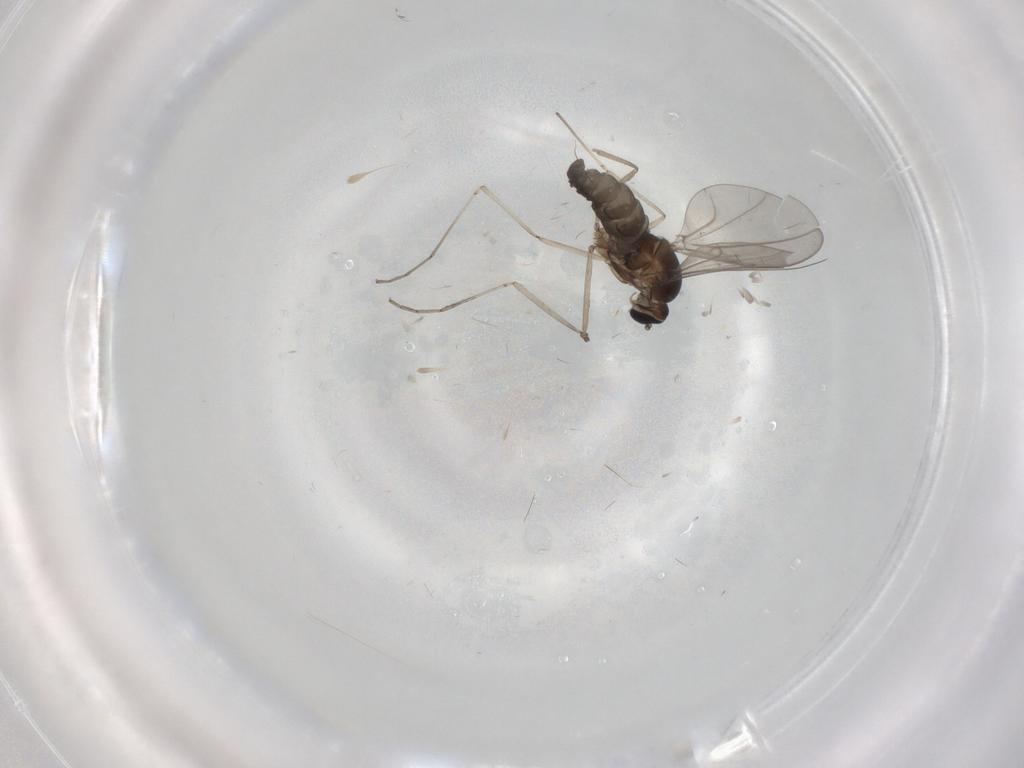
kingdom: Animalia
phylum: Arthropoda
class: Insecta
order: Diptera
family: Cecidomyiidae
